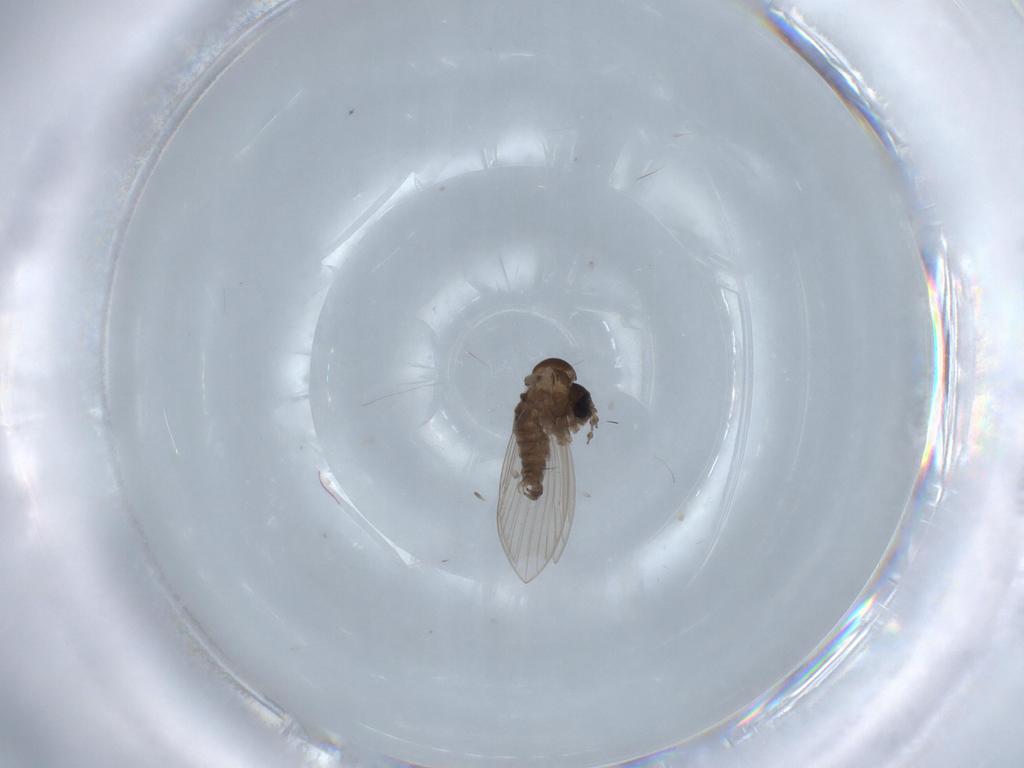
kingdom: Animalia
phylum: Arthropoda
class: Insecta
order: Diptera
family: Psychodidae
